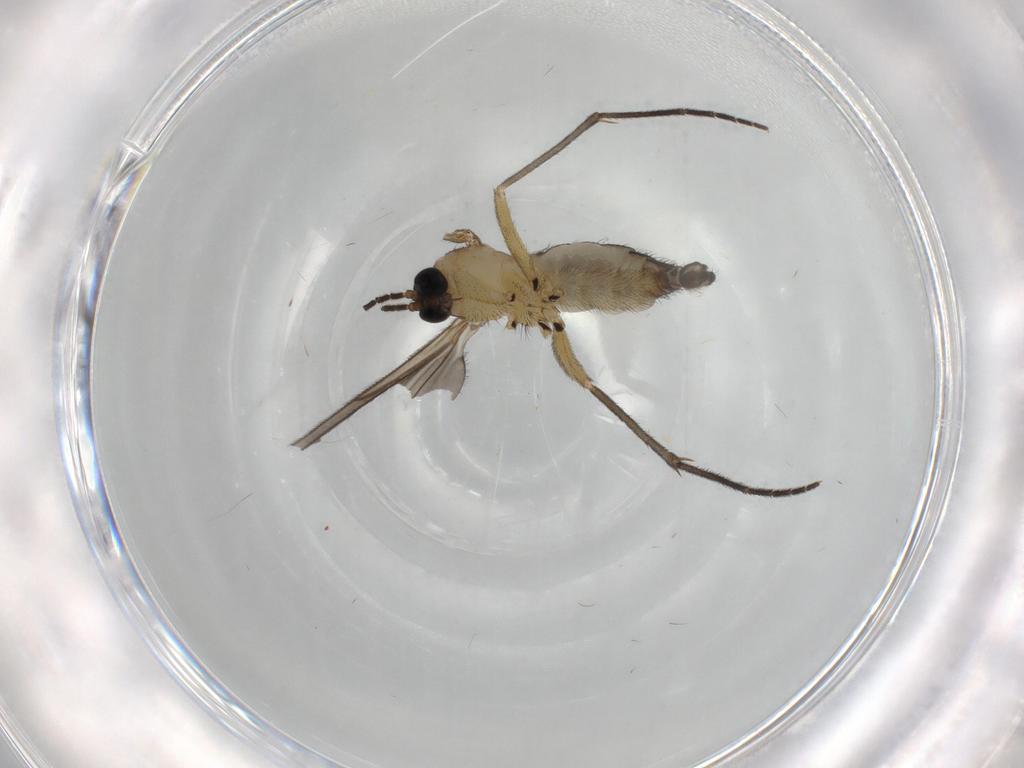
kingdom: Animalia
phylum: Arthropoda
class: Insecta
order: Diptera
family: Sciaridae
